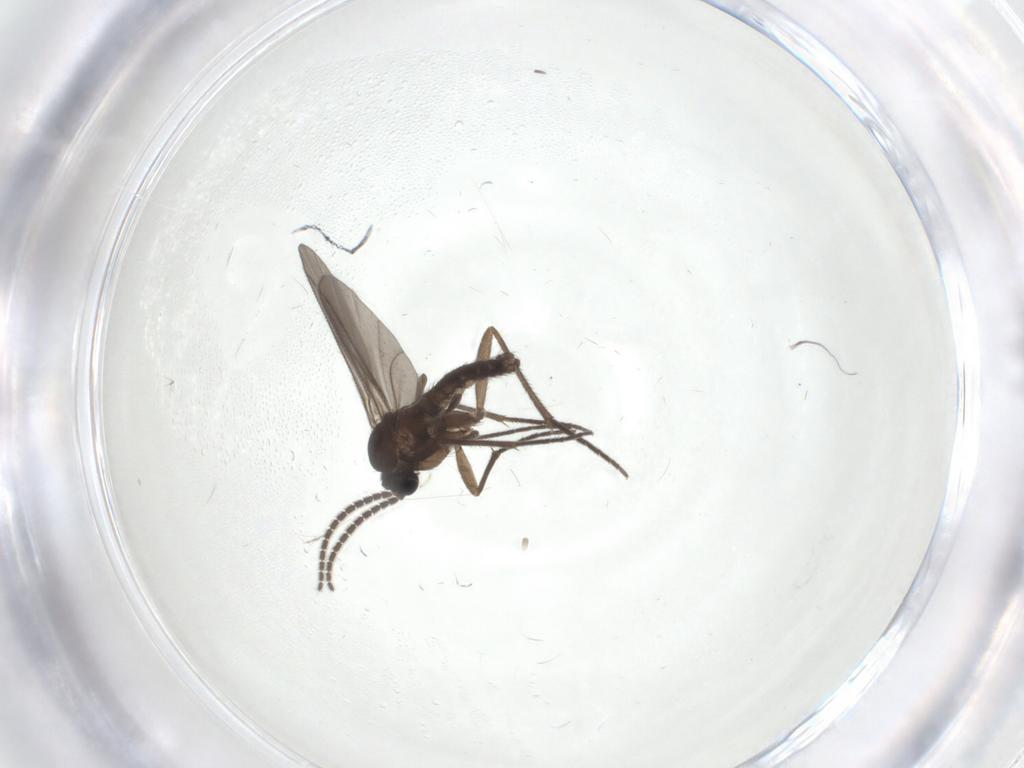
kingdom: Animalia
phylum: Arthropoda
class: Insecta
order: Diptera
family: Sciaridae
